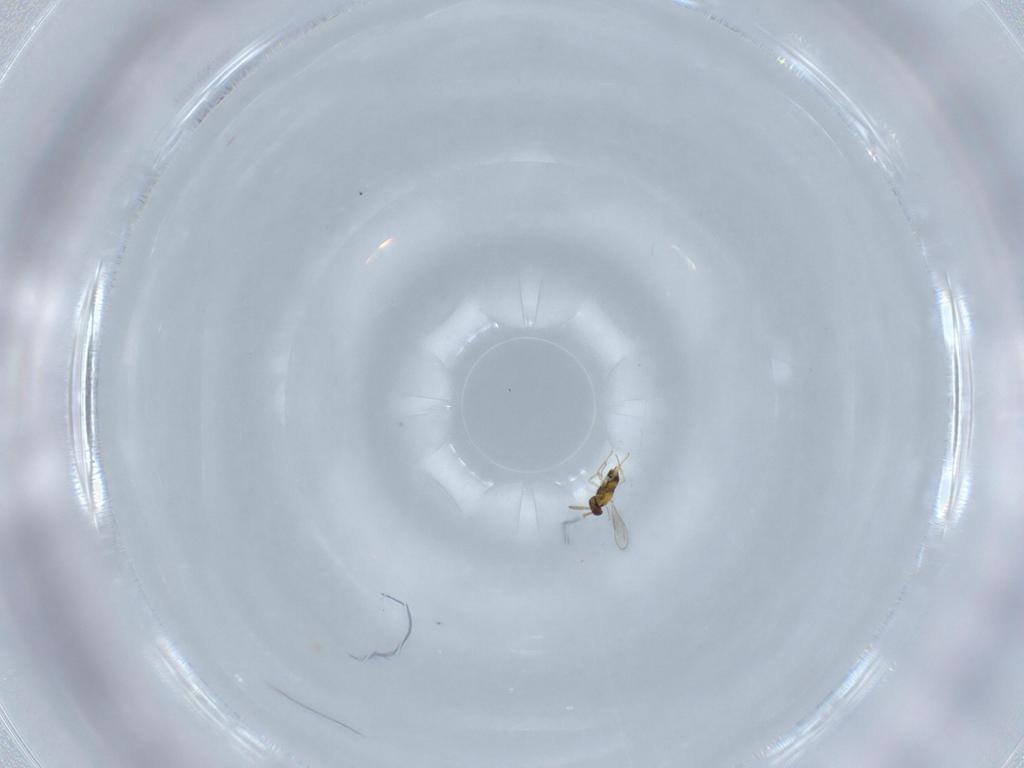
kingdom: Animalia
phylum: Arthropoda
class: Insecta
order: Hymenoptera
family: Aphelinidae
